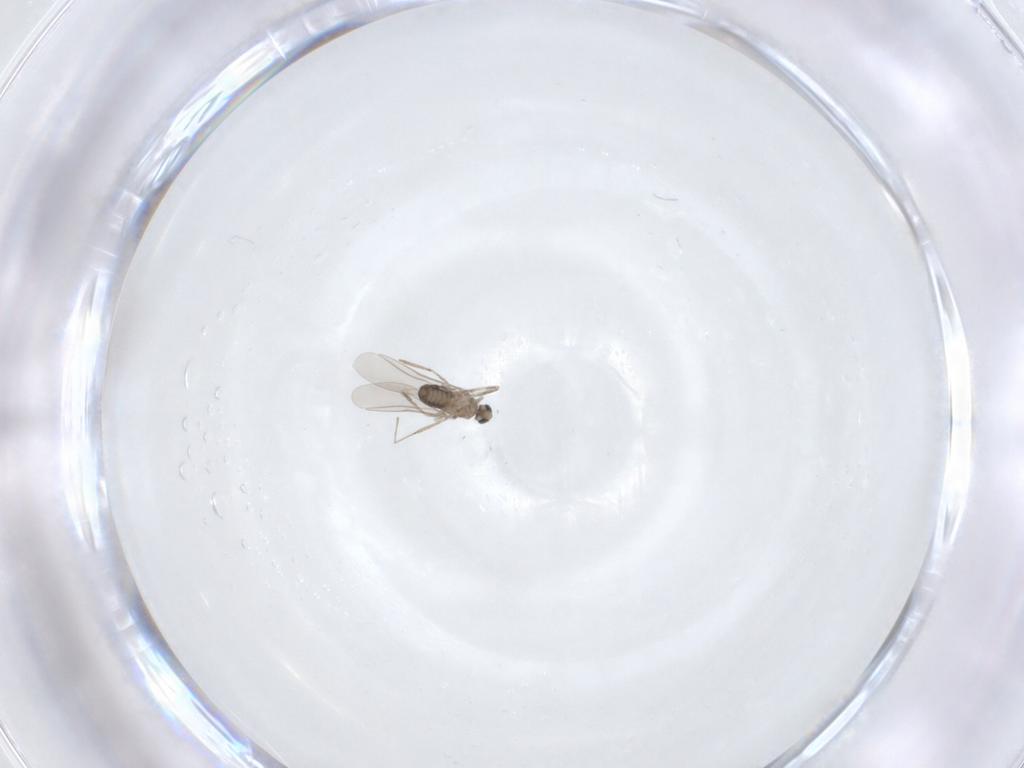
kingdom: Animalia
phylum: Arthropoda
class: Insecta
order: Diptera
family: Cecidomyiidae
